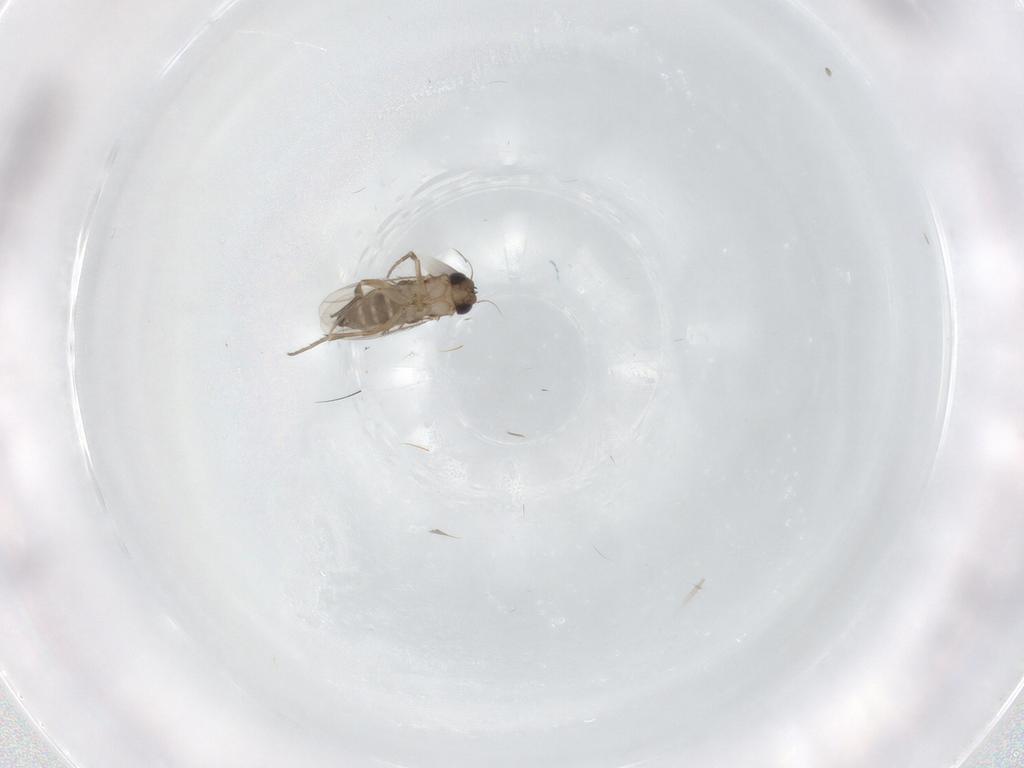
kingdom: Animalia
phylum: Arthropoda
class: Insecta
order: Diptera
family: Phoridae
